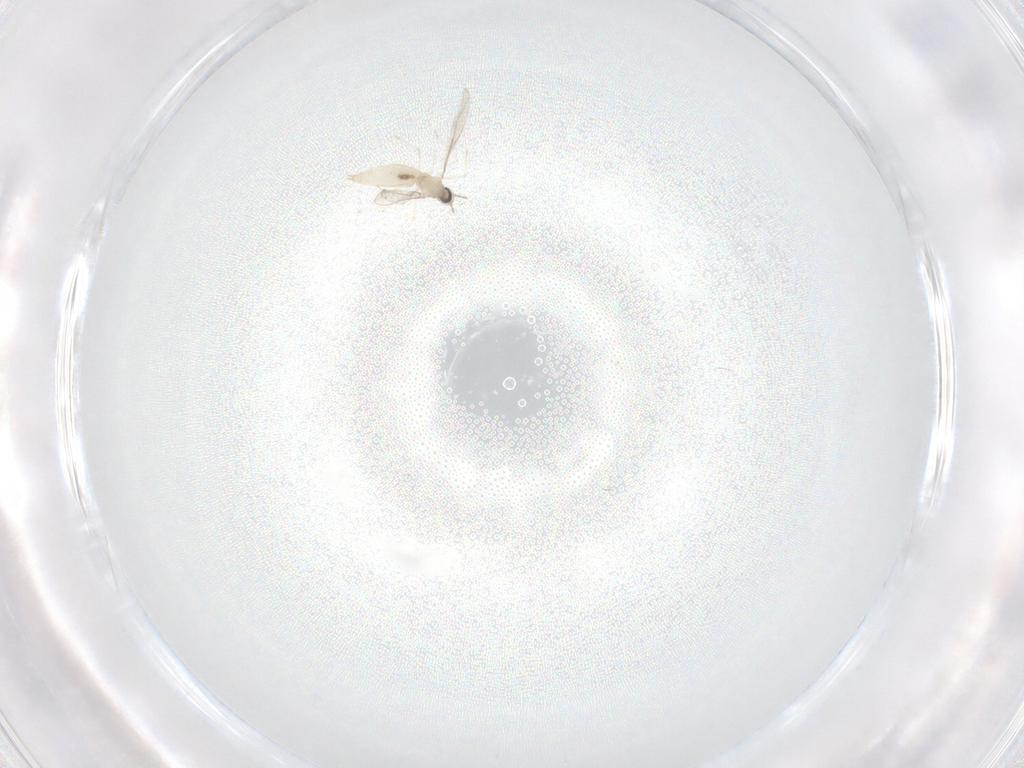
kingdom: Animalia
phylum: Arthropoda
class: Insecta
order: Diptera
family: Cecidomyiidae
